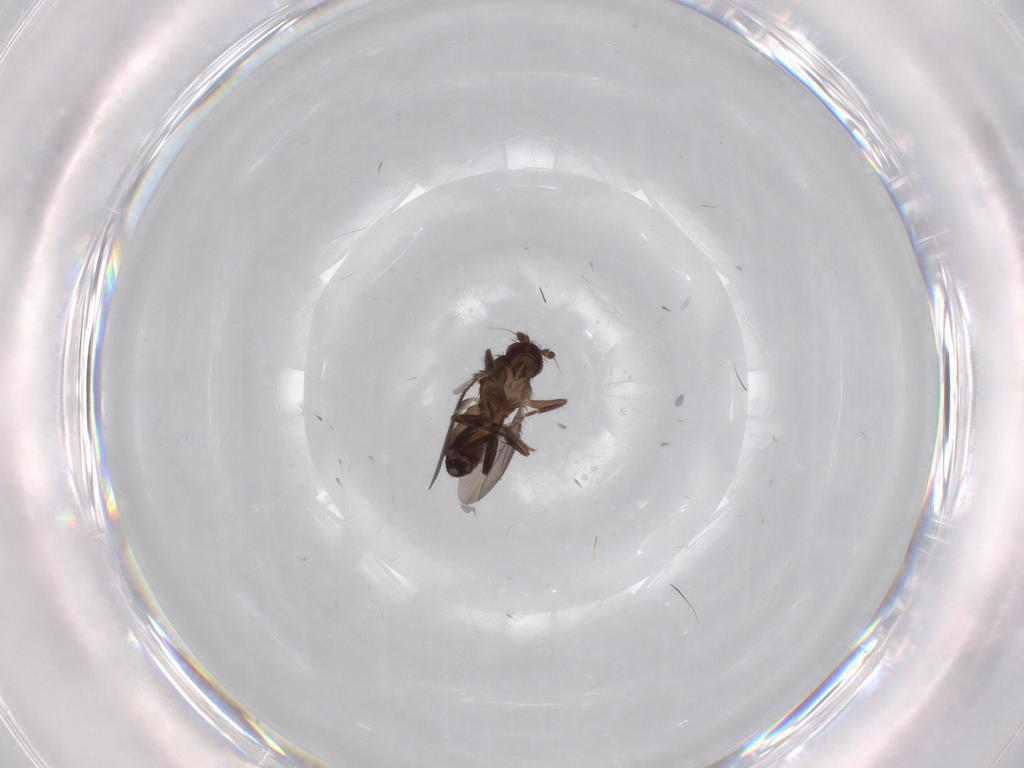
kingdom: Animalia
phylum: Arthropoda
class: Insecta
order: Diptera
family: Sphaeroceridae
